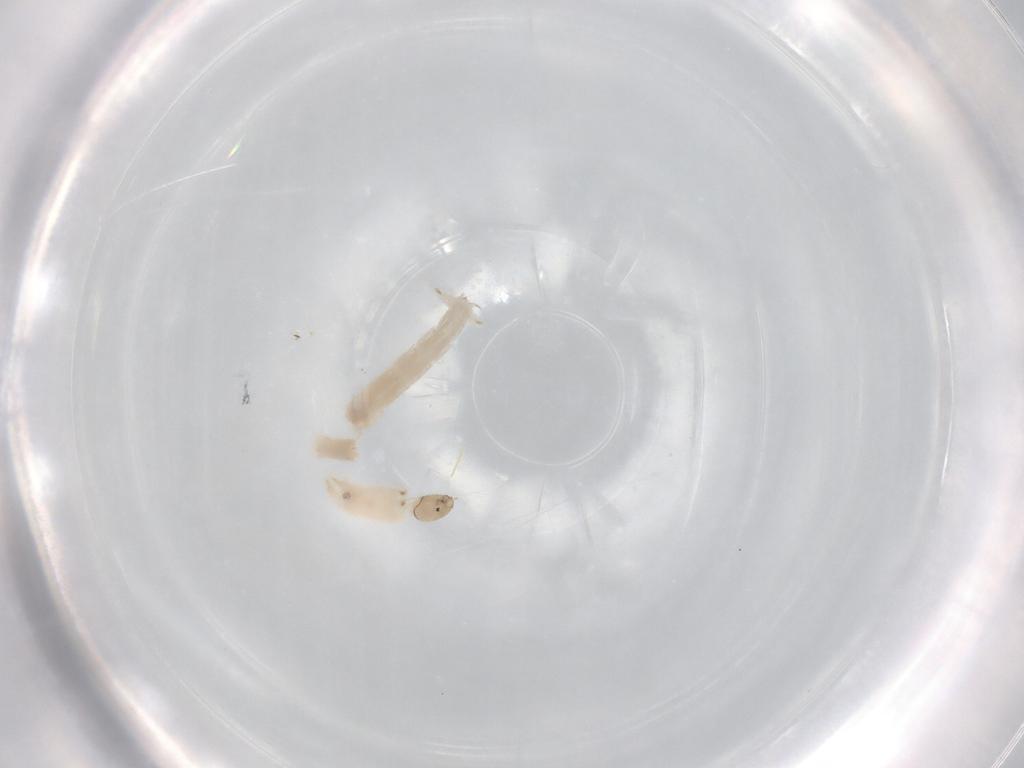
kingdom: Animalia
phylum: Arthropoda
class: Insecta
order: Diptera
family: Chironomidae
